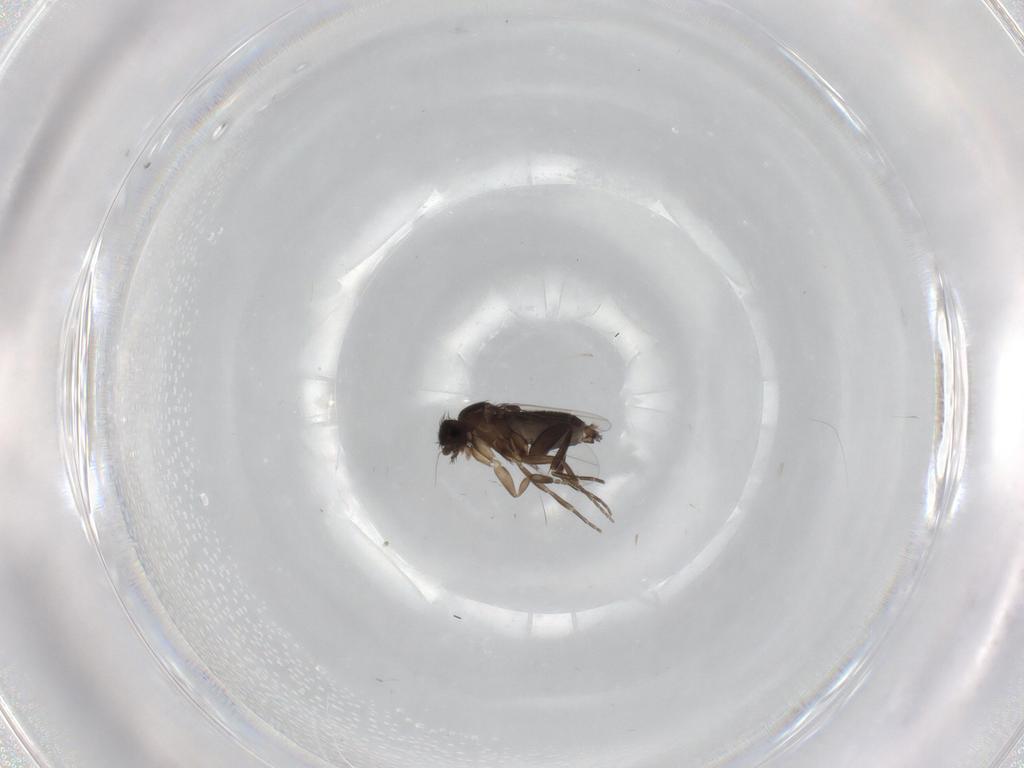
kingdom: Animalia
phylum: Arthropoda
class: Insecta
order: Diptera
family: Phoridae
